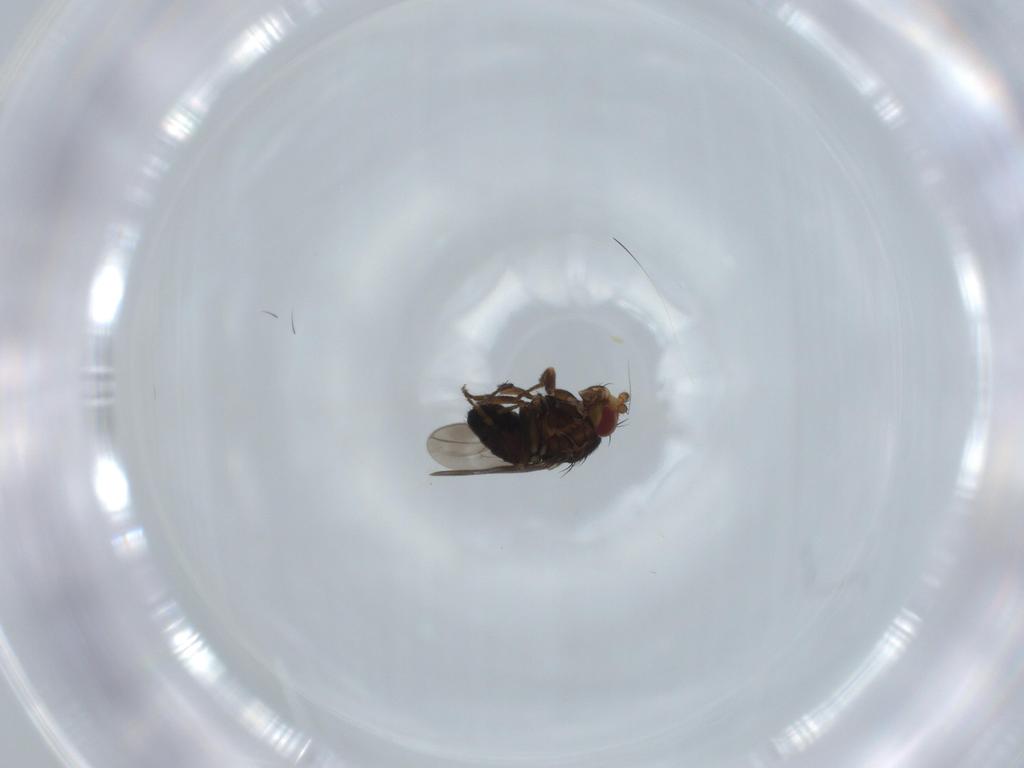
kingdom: Animalia
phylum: Arthropoda
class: Insecta
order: Diptera
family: Sphaeroceridae
